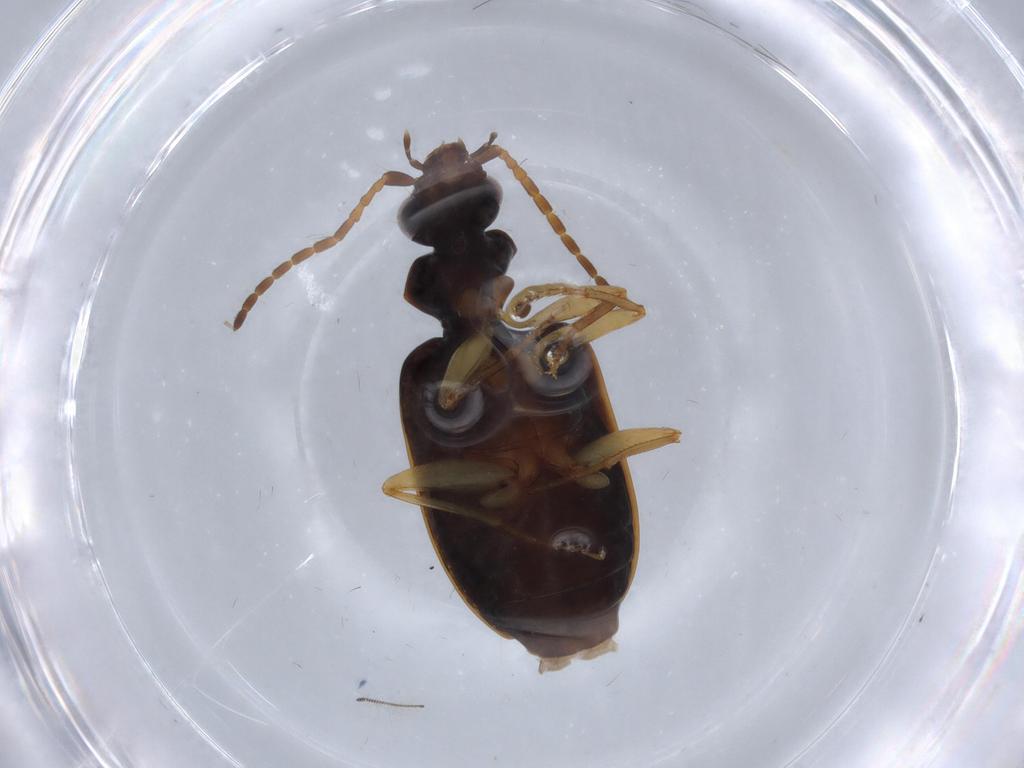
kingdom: Animalia
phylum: Arthropoda
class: Insecta
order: Coleoptera
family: Carabidae
